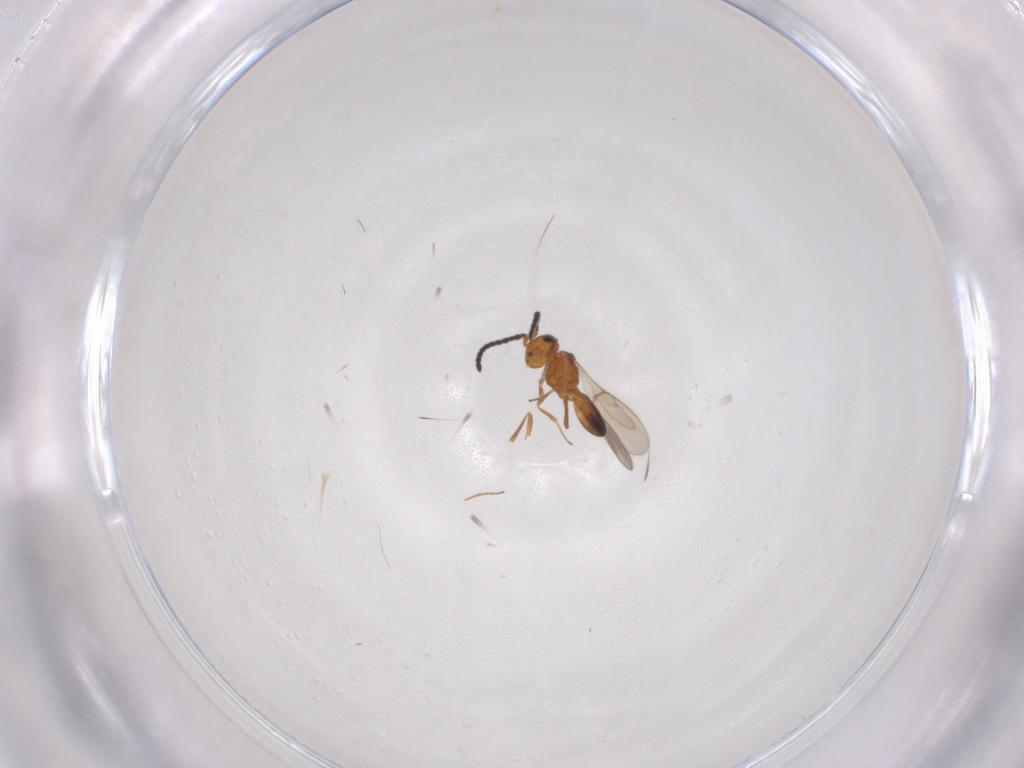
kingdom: Animalia
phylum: Arthropoda
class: Insecta
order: Hymenoptera
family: Scelionidae
